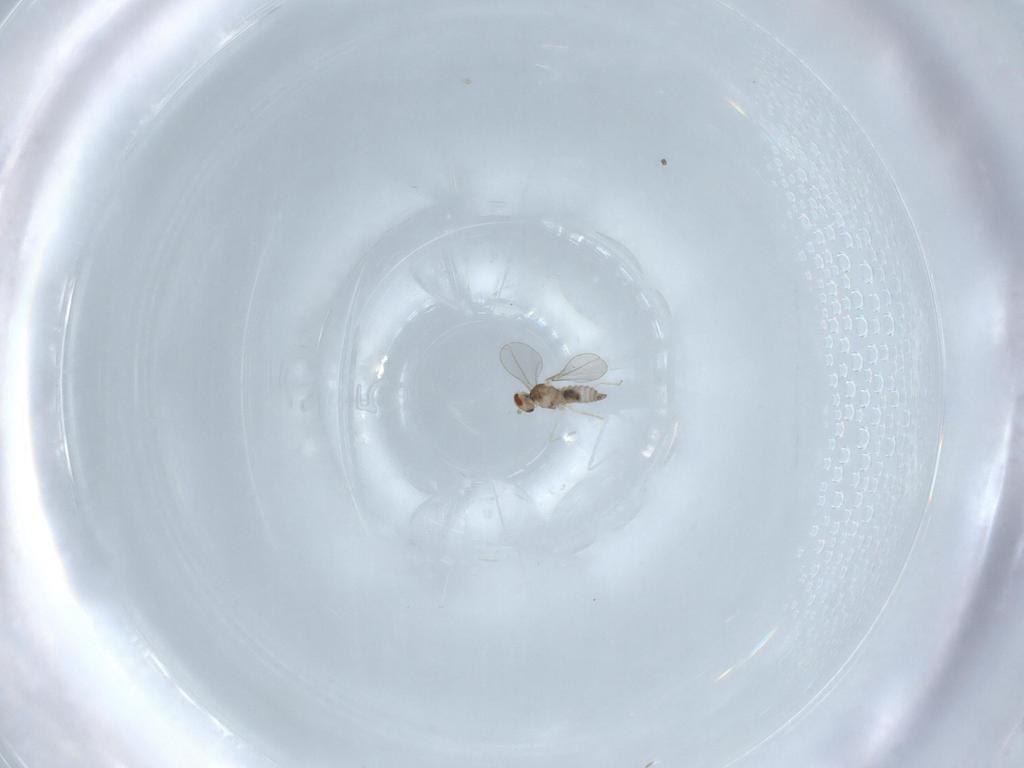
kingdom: Animalia
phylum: Arthropoda
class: Insecta
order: Diptera
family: Cecidomyiidae
